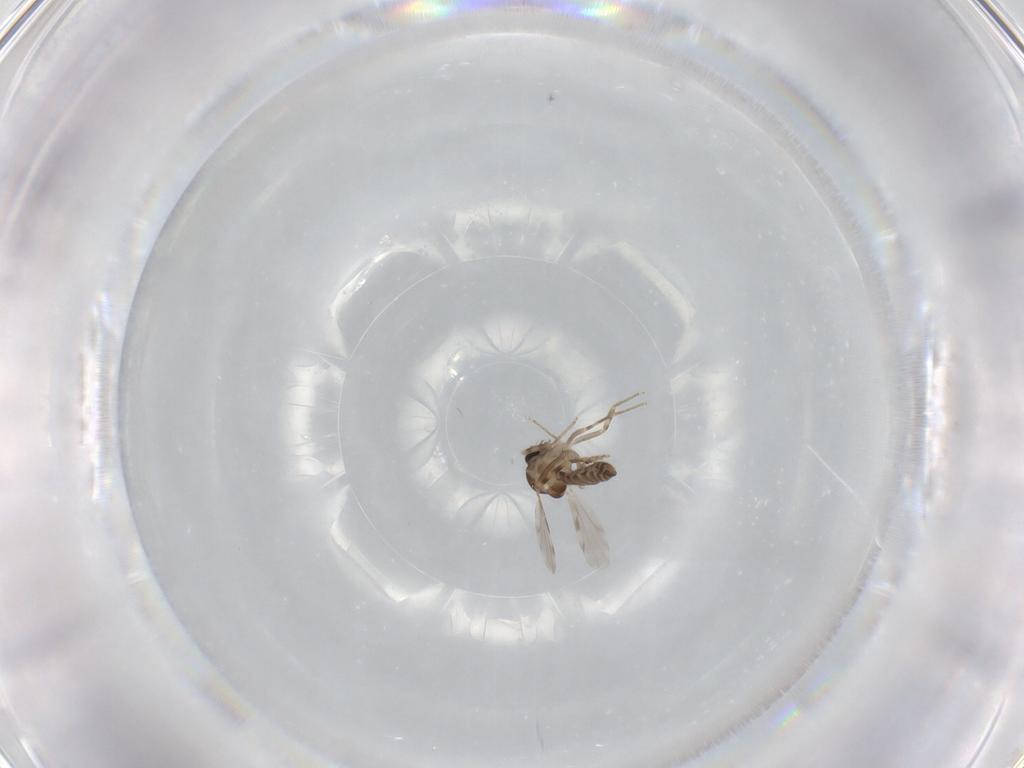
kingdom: Animalia
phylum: Arthropoda
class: Insecta
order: Diptera
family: Ceratopogonidae
